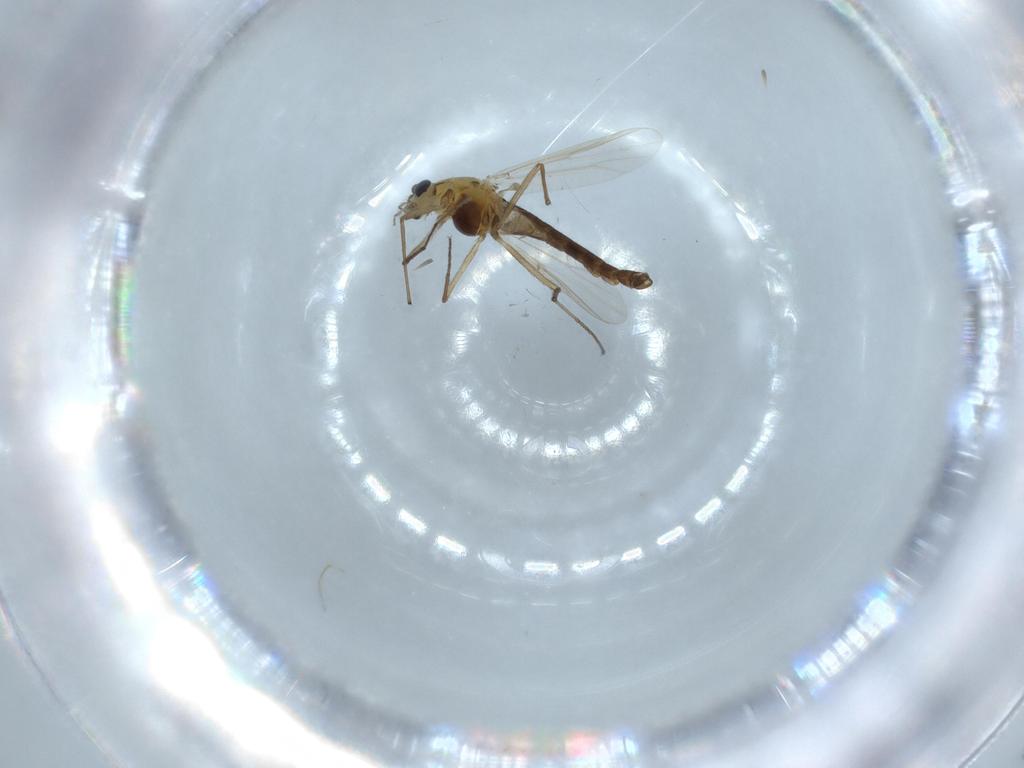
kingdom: Animalia
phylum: Arthropoda
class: Insecta
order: Diptera
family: Chironomidae
